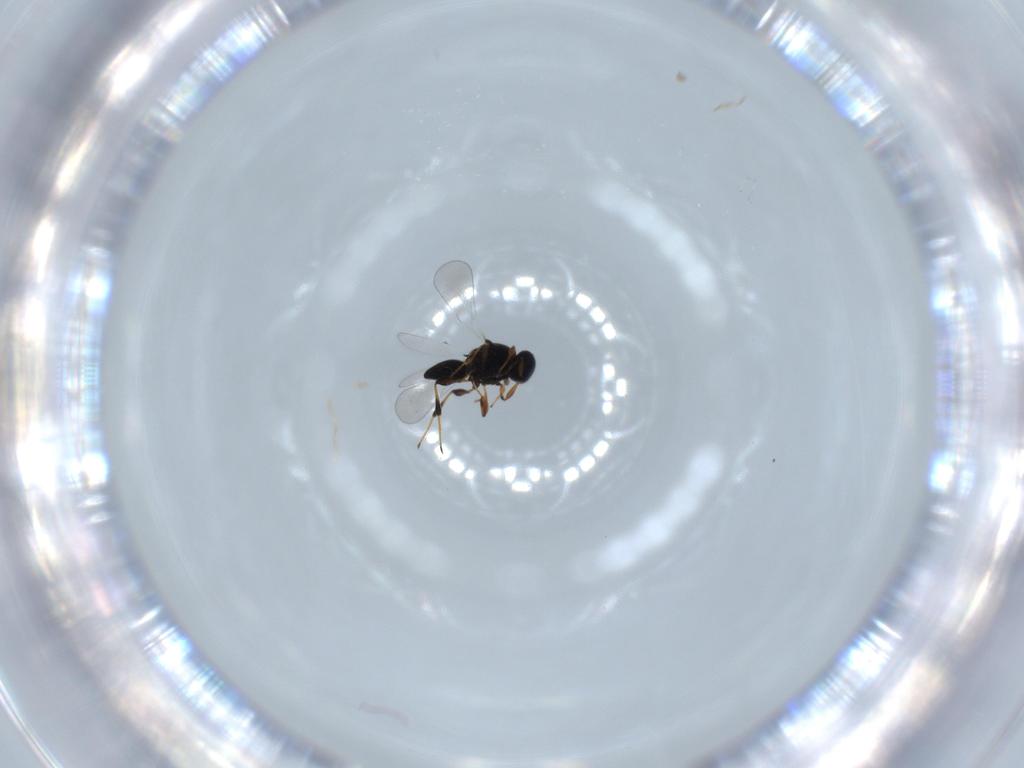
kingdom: Animalia
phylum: Arthropoda
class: Insecta
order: Hymenoptera
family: Platygastridae
